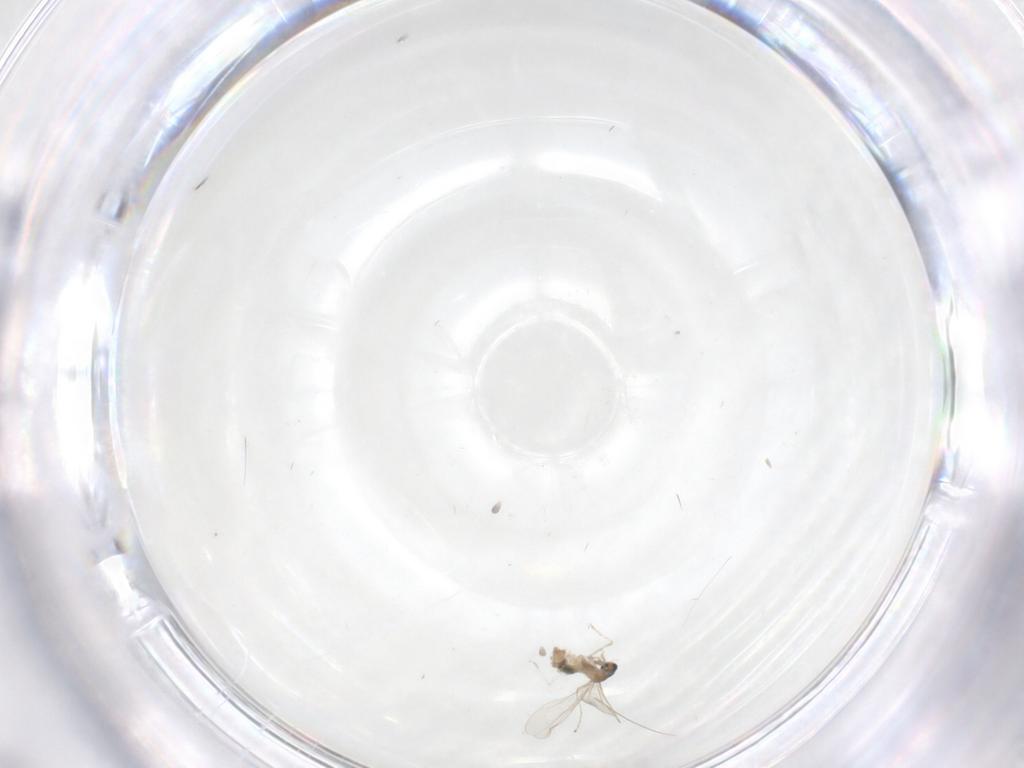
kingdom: Animalia
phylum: Arthropoda
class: Insecta
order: Diptera
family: Cecidomyiidae
